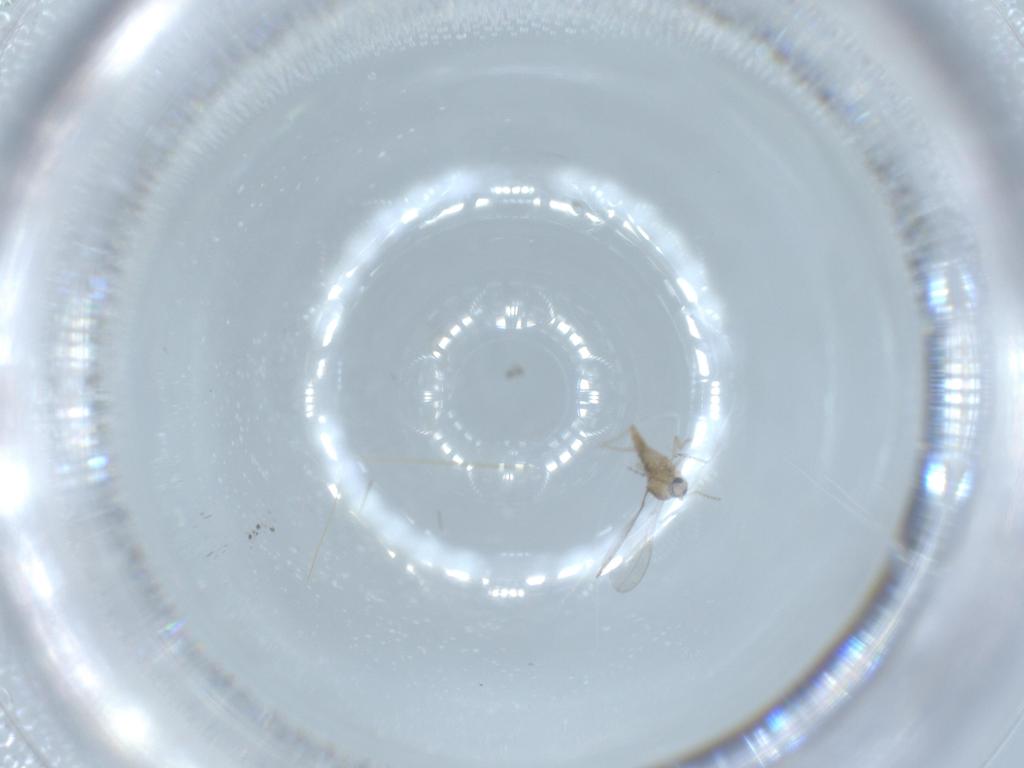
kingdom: Animalia
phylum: Arthropoda
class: Insecta
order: Diptera
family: Cecidomyiidae
